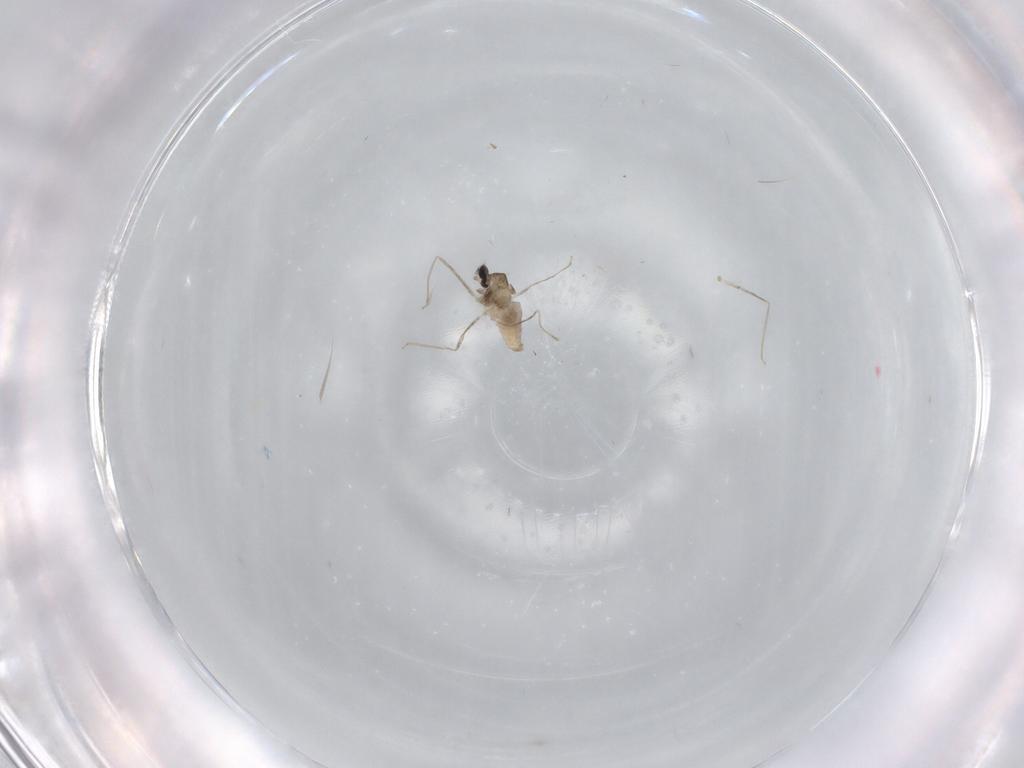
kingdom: Animalia
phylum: Arthropoda
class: Insecta
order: Diptera
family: Cecidomyiidae
